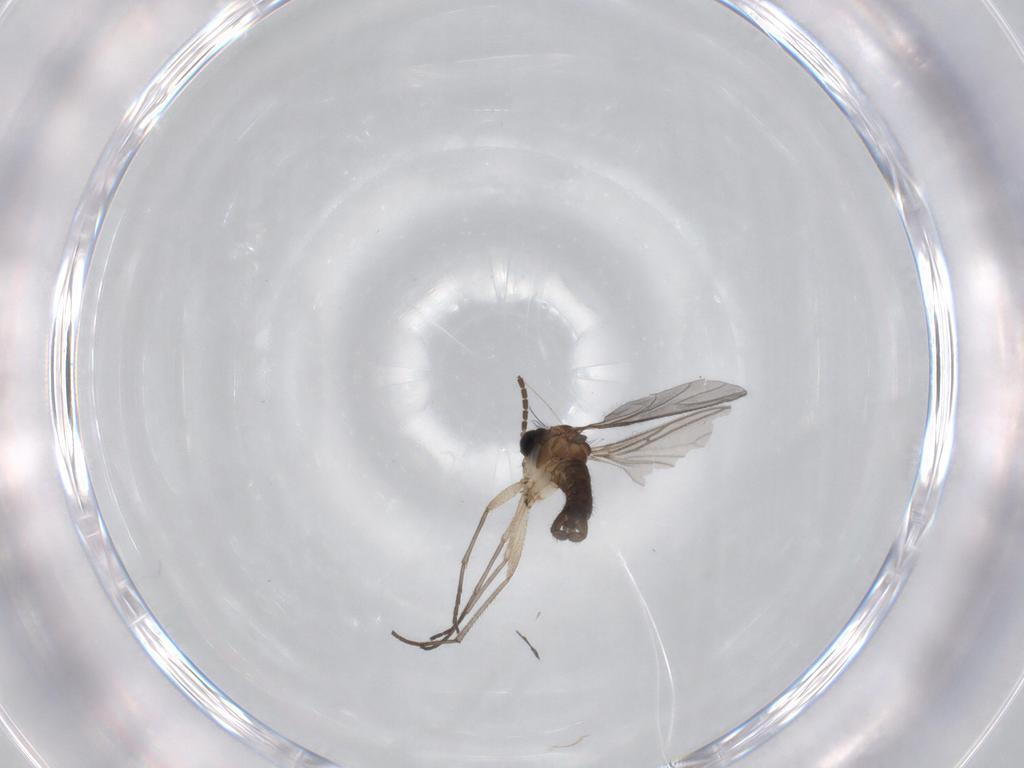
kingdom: Animalia
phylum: Arthropoda
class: Insecta
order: Diptera
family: Sciaridae
